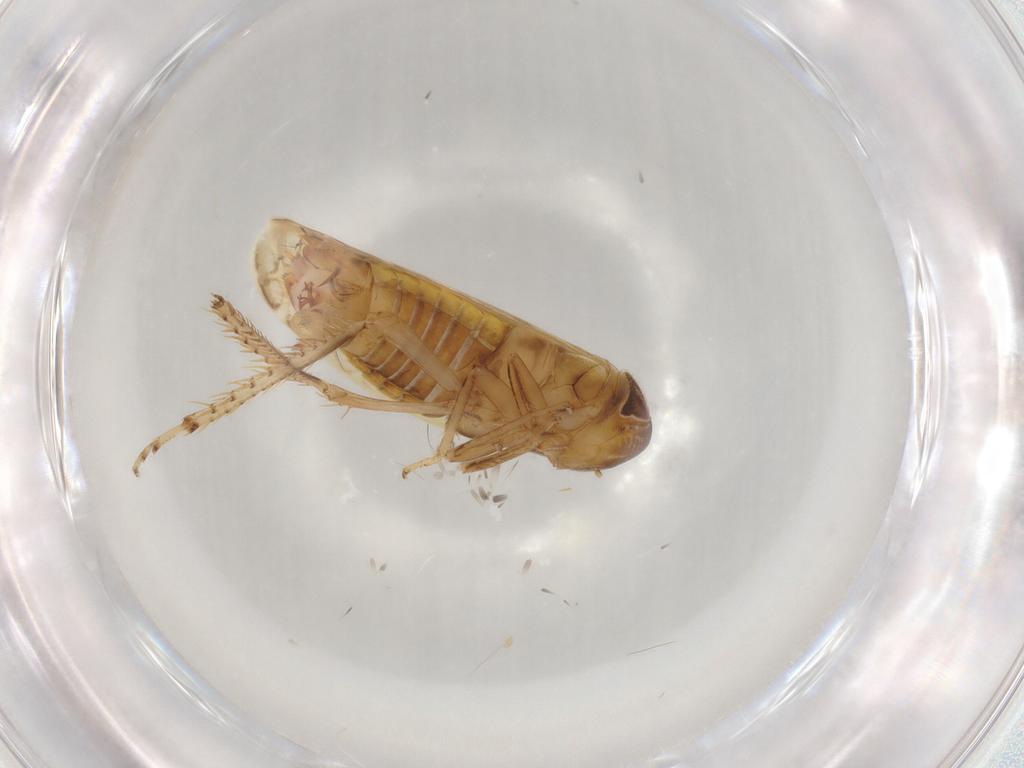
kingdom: Animalia
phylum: Arthropoda
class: Insecta
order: Hemiptera
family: Cicadellidae
